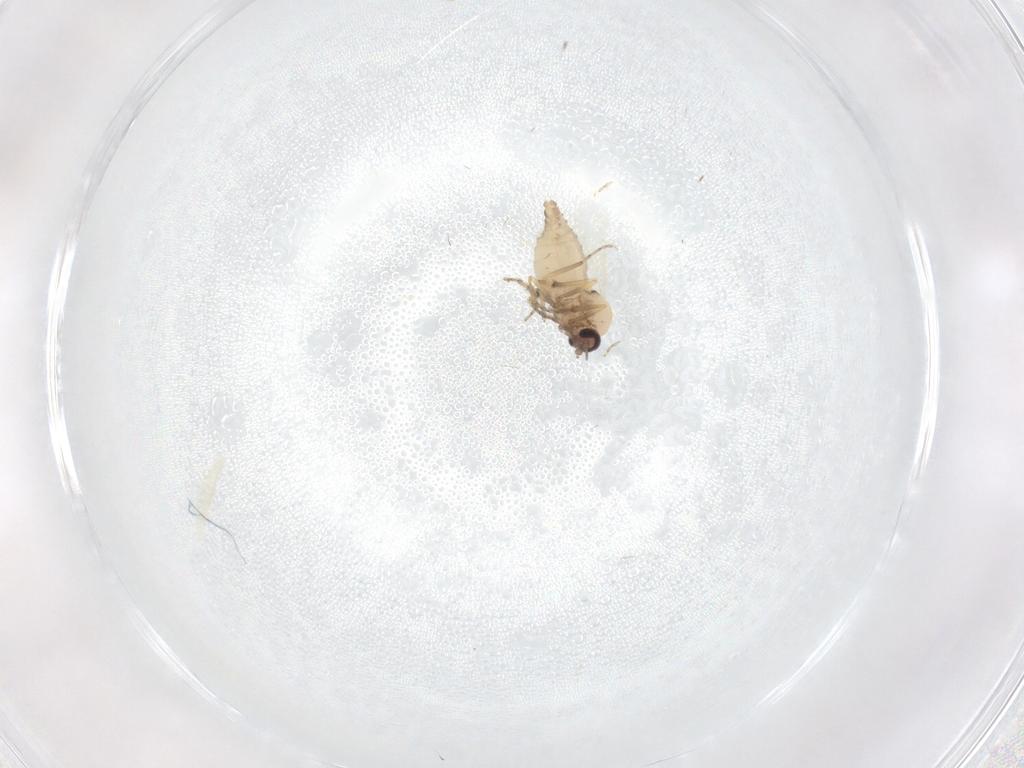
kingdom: Animalia
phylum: Arthropoda
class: Insecta
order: Diptera
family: Ceratopogonidae
